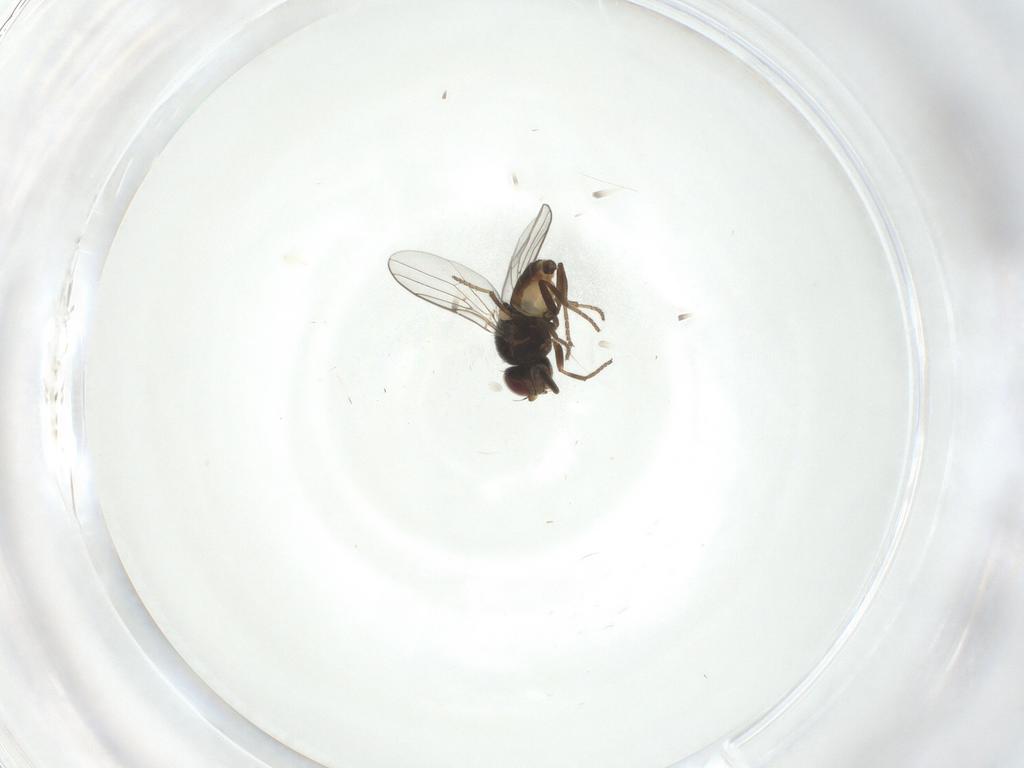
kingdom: Animalia
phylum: Arthropoda
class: Insecta
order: Diptera
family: Chloropidae
